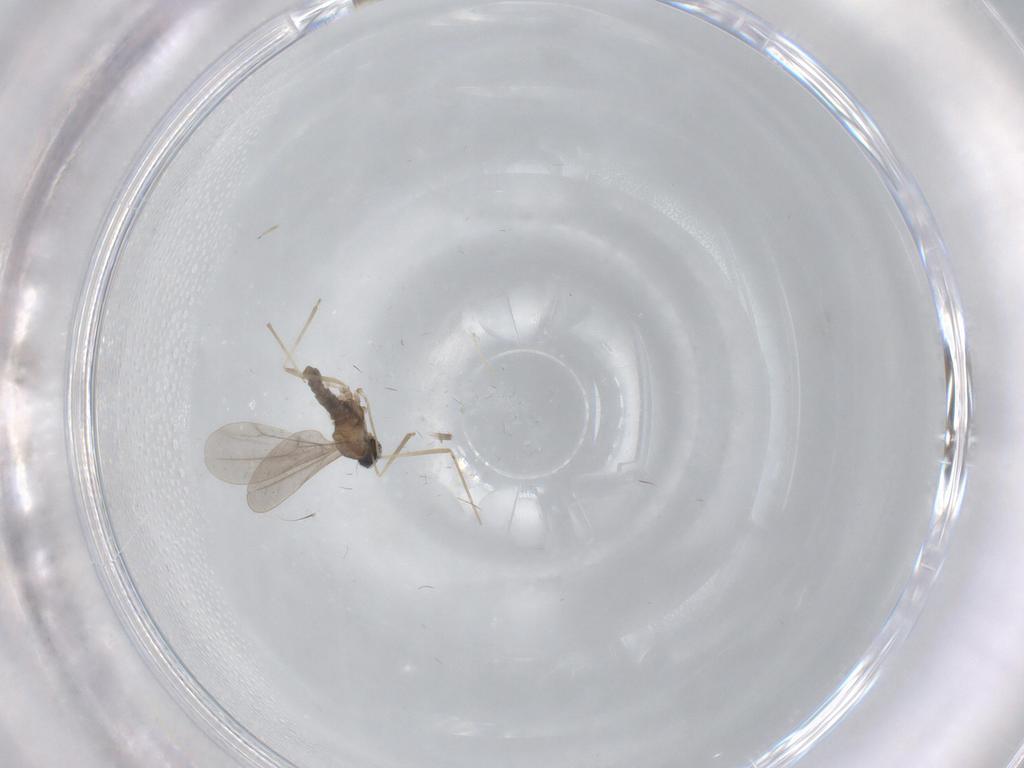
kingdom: Animalia
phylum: Arthropoda
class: Insecta
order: Diptera
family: Cecidomyiidae
